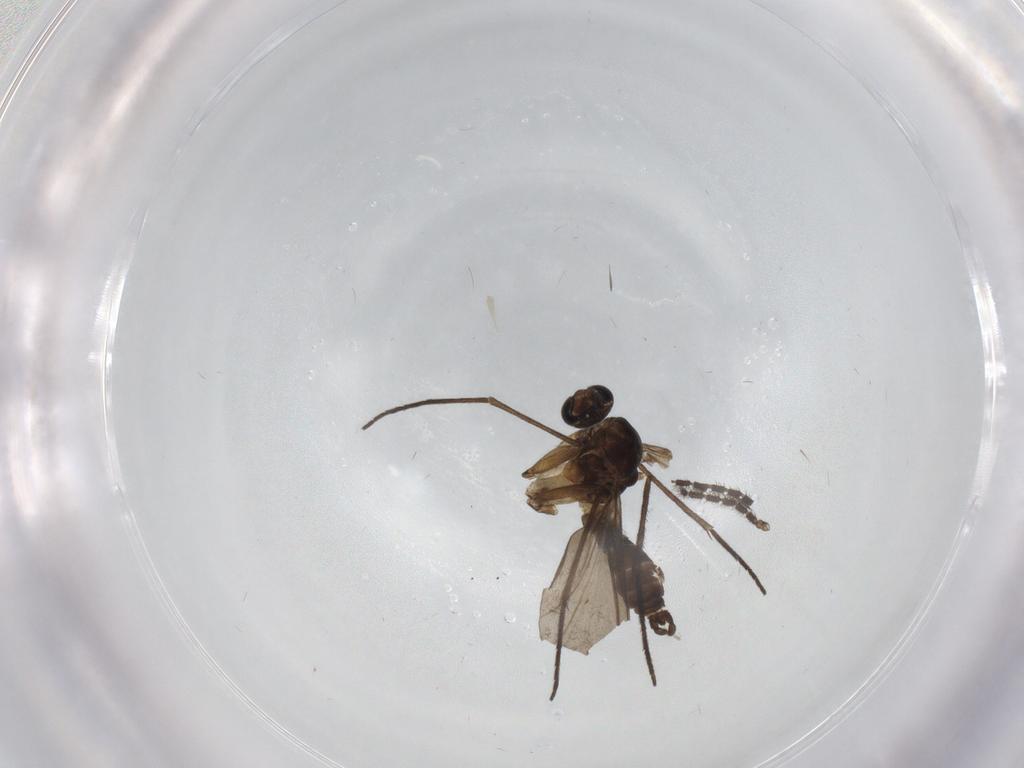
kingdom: Animalia
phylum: Arthropoda
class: Insecta
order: Diptera
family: Sciaridae
